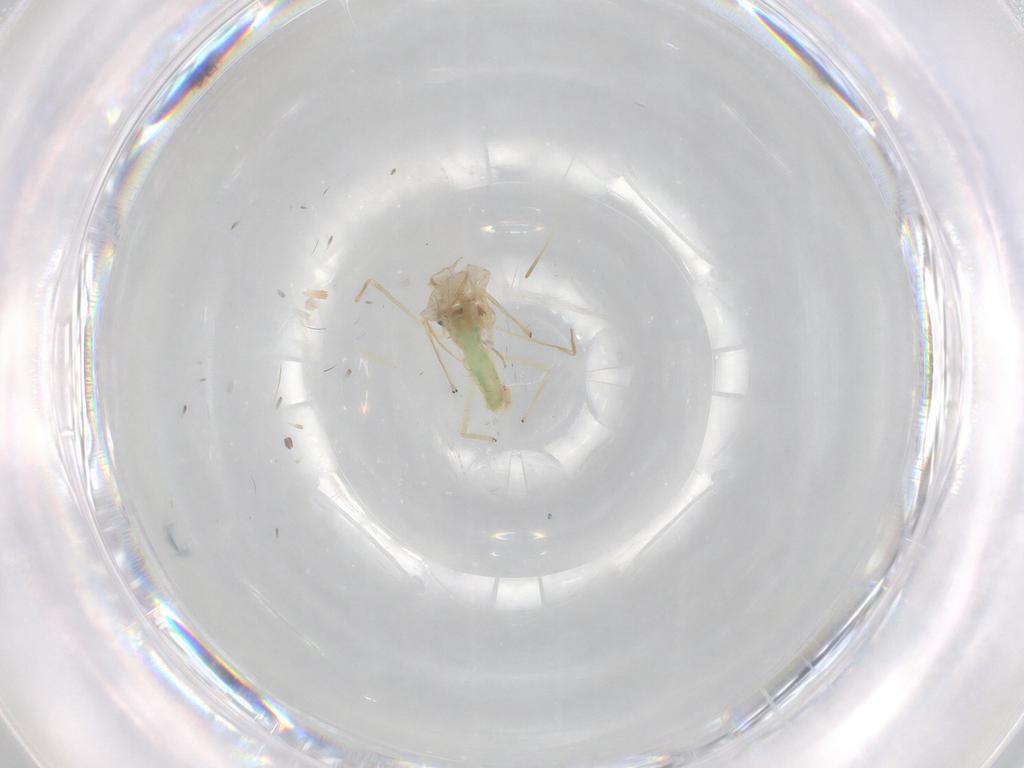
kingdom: Animalia
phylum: Arthropoda
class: Insecta
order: Diptera
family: Chironomidae
